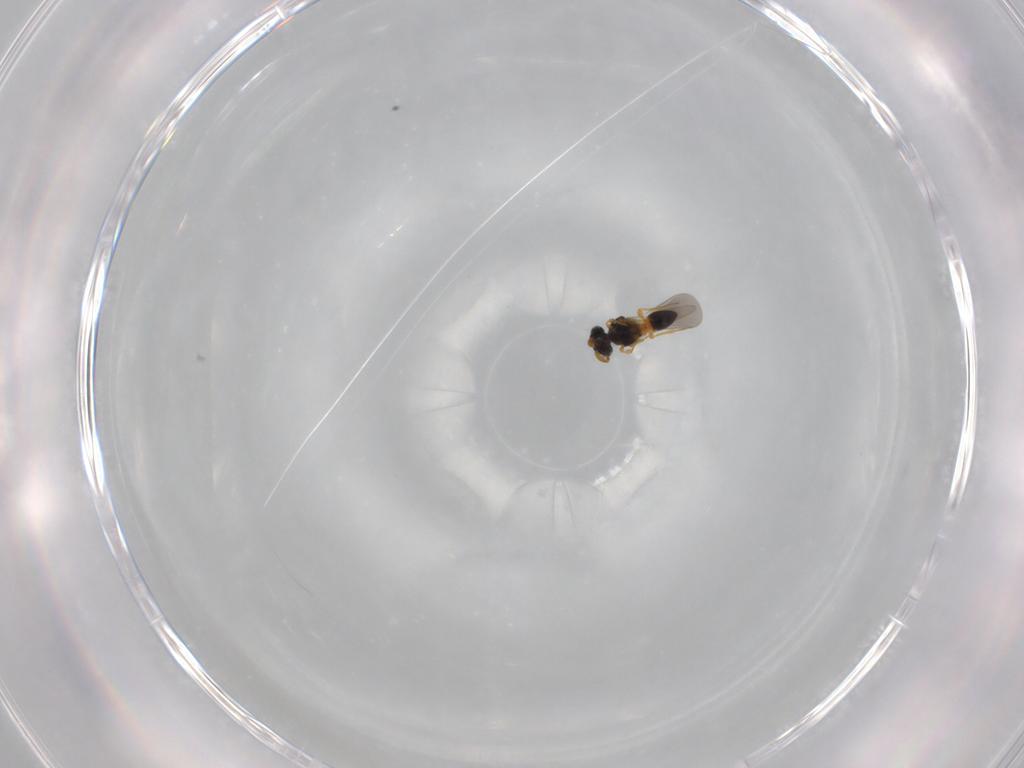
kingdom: Animalia
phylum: Arthropoda
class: Insecta
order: Hymenoptera
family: Platygastridae
